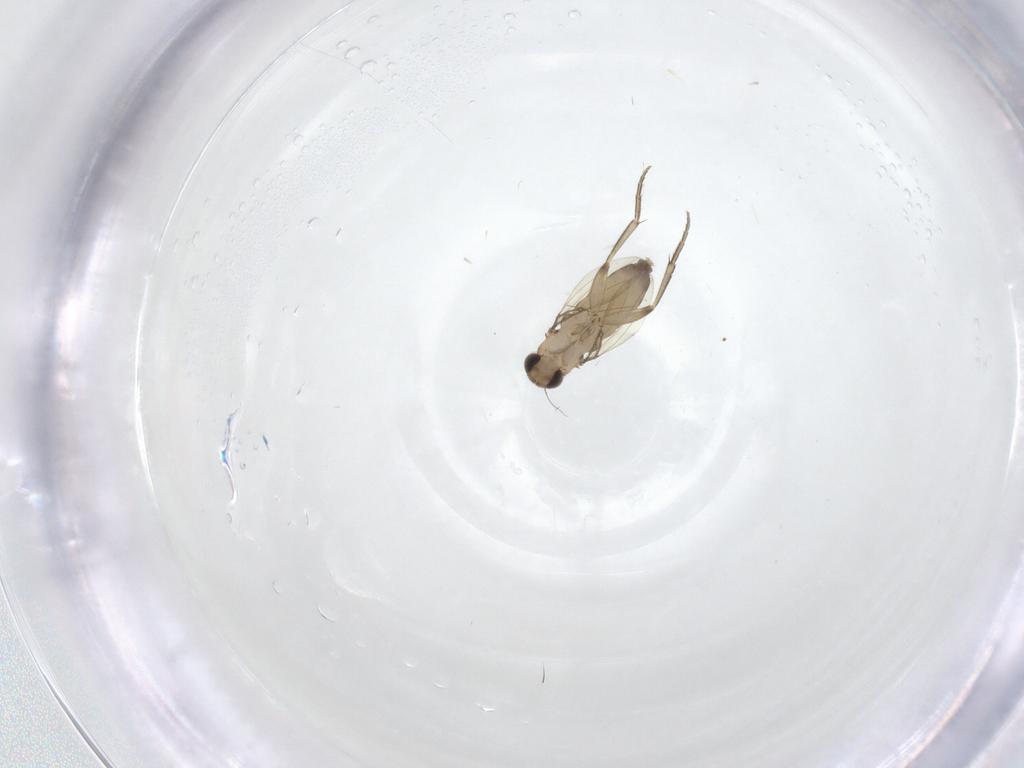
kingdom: Animalia
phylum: Arthropoda
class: Insecta
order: Diptera
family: Phoridae
